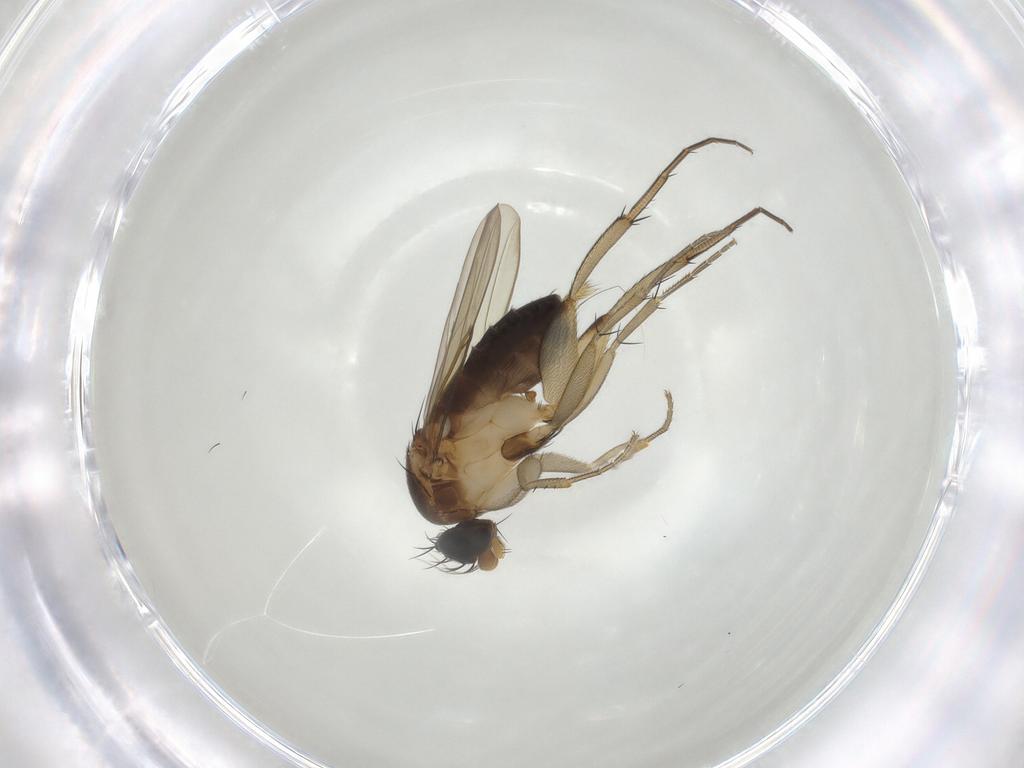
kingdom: Animalia
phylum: Arthropoda
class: Insecta
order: Diptera
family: Phoridae
